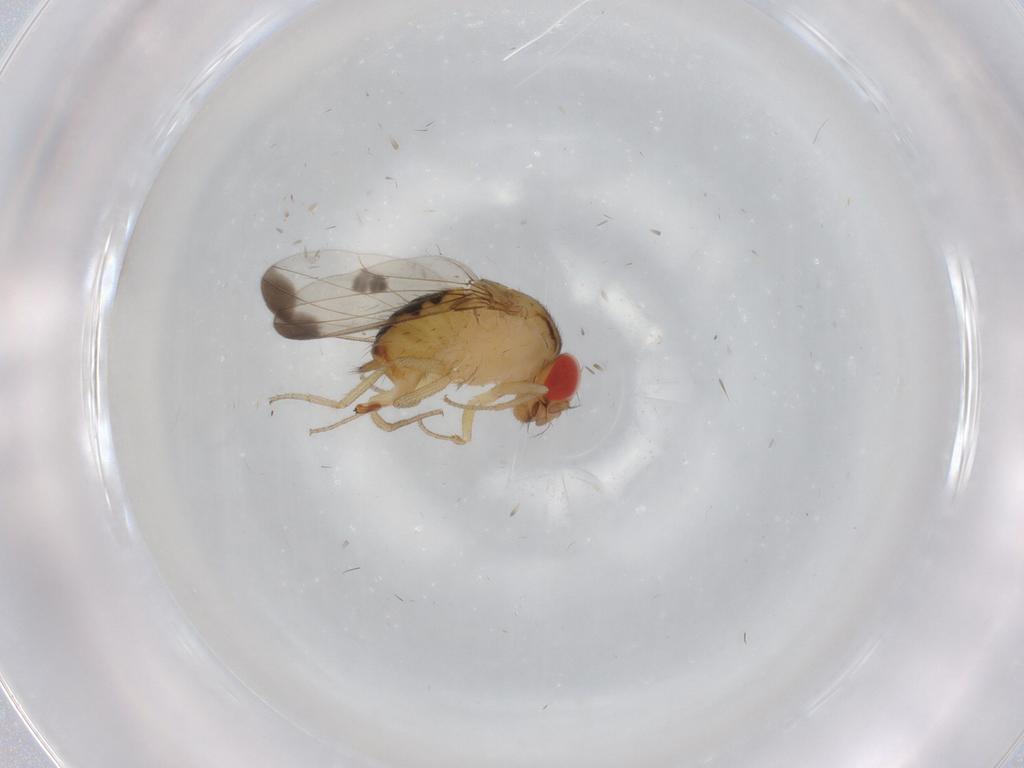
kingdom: Animalia
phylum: Arthropoda
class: Insecta
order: Diptera
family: Drosophilidae
